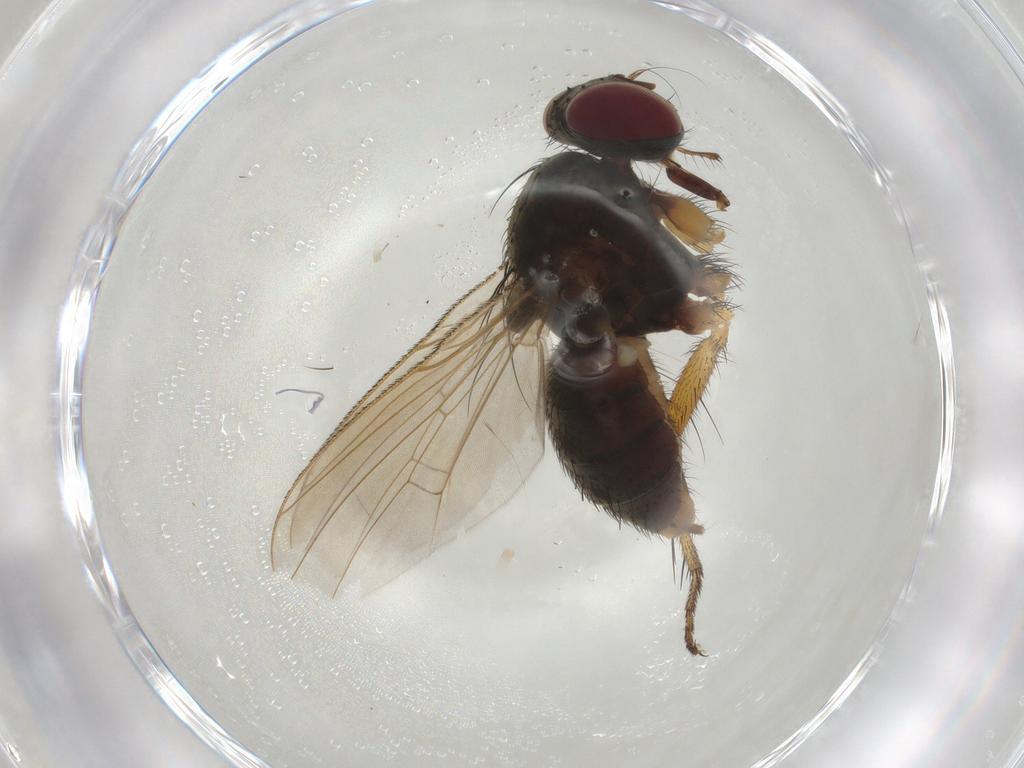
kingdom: Animalia
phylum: Arthropoda
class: Insecta
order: Diptera
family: Muscidae
